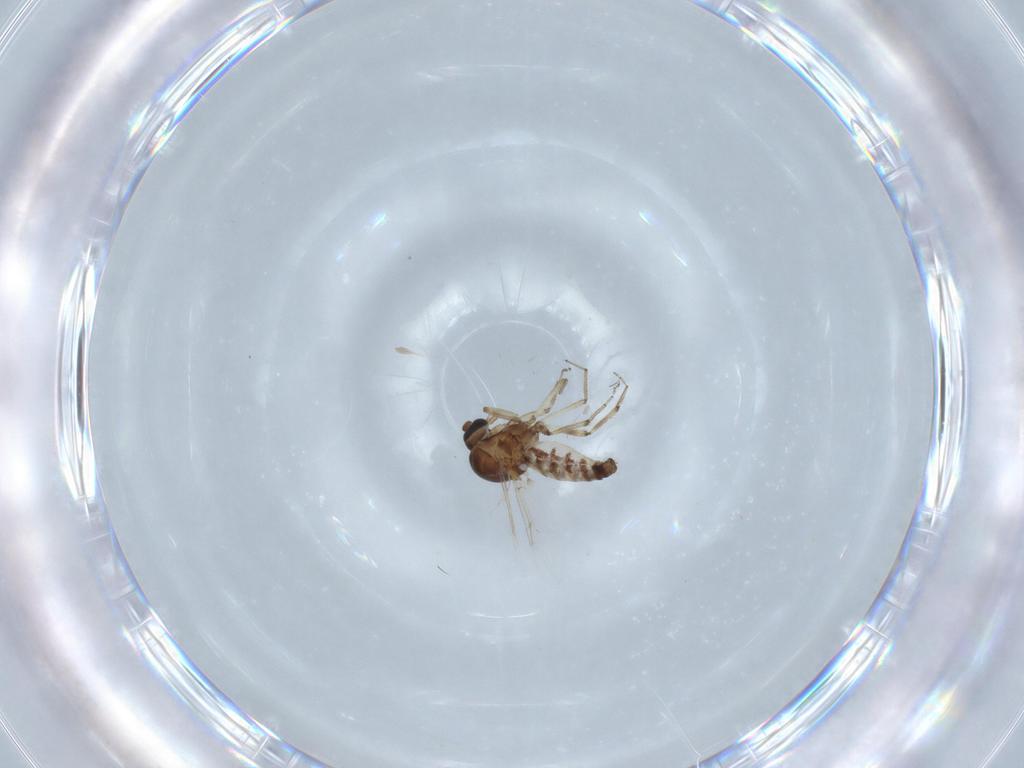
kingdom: Animalia
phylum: Arthropoda
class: Insecta
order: Diptera
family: Ceratopogonidae
